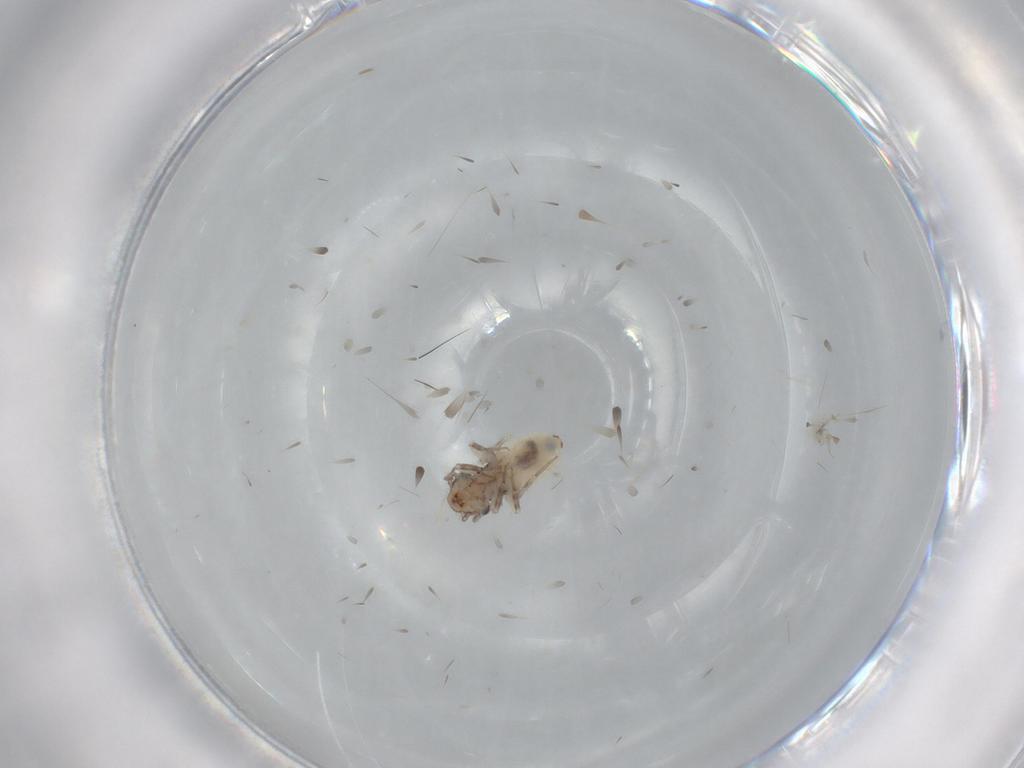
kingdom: Animalia
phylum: Arthropoda
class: Insecta
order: Psocodea
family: Lepidopsocidae
